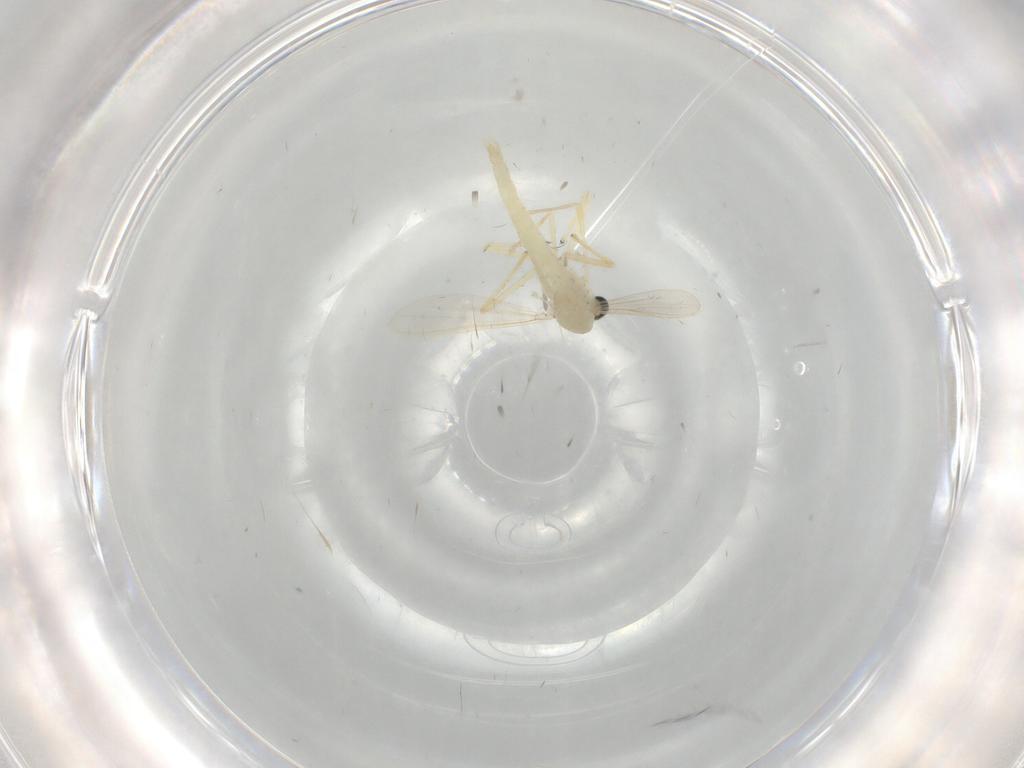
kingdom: Animalia
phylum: Arthropoda
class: Insecta
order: Diptera
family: Chironomidae
